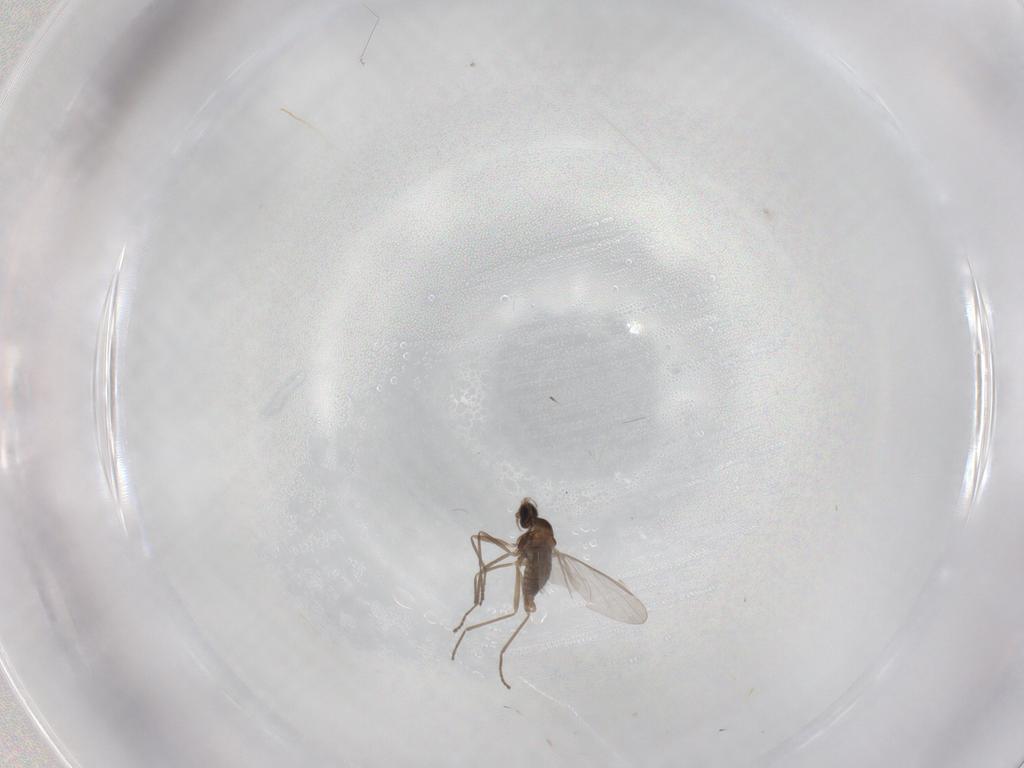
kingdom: Animalia
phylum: Arthropoda
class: Insecta
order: Diptera
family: Cecidomyiidae
